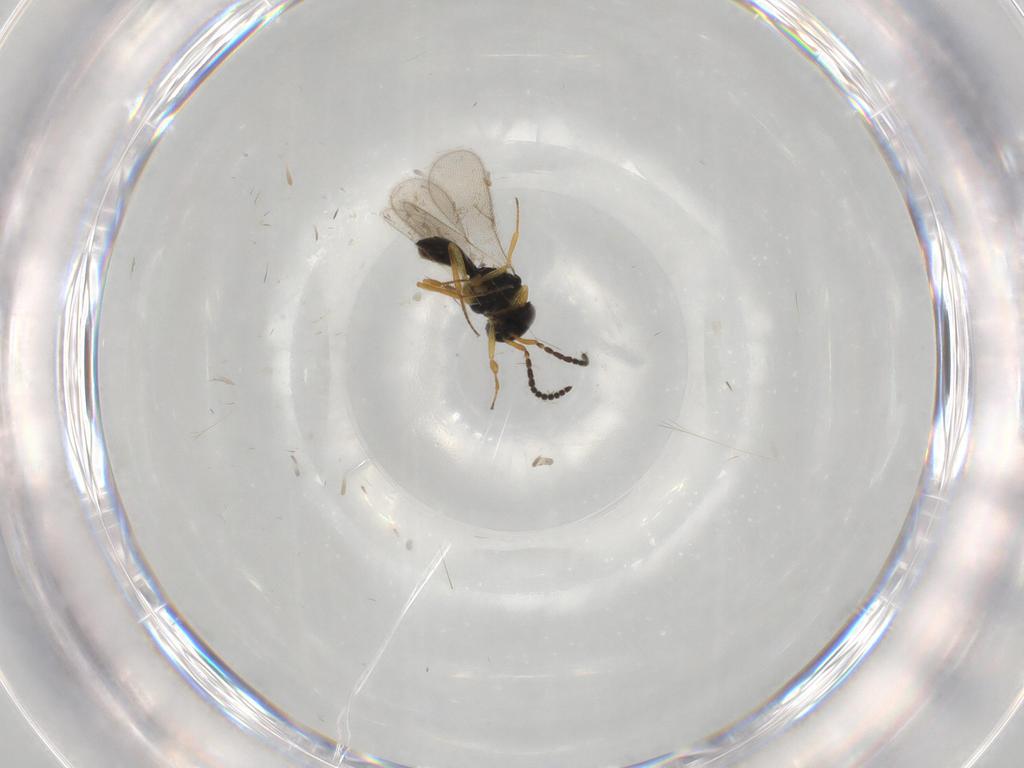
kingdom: Animalia
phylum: Arthropoda
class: Insecta
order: Hymenoptera
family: Scelionidae
